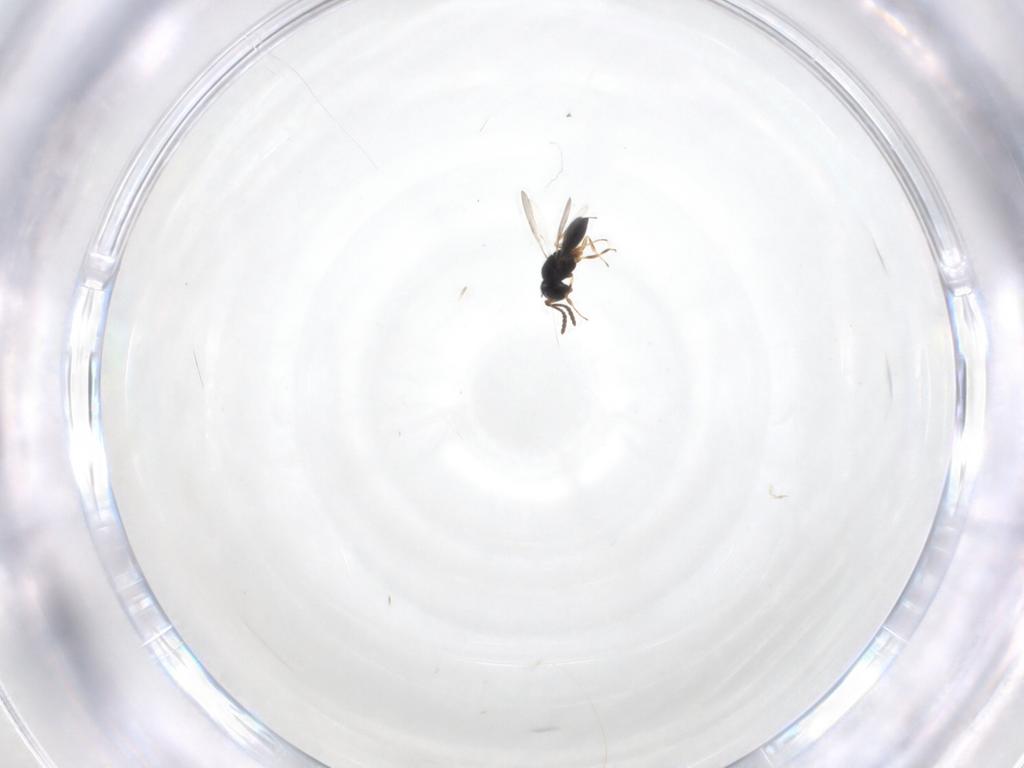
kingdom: Animalia
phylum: Arthropoda
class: Insecta
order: Hymenoptera
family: Scelionidae
